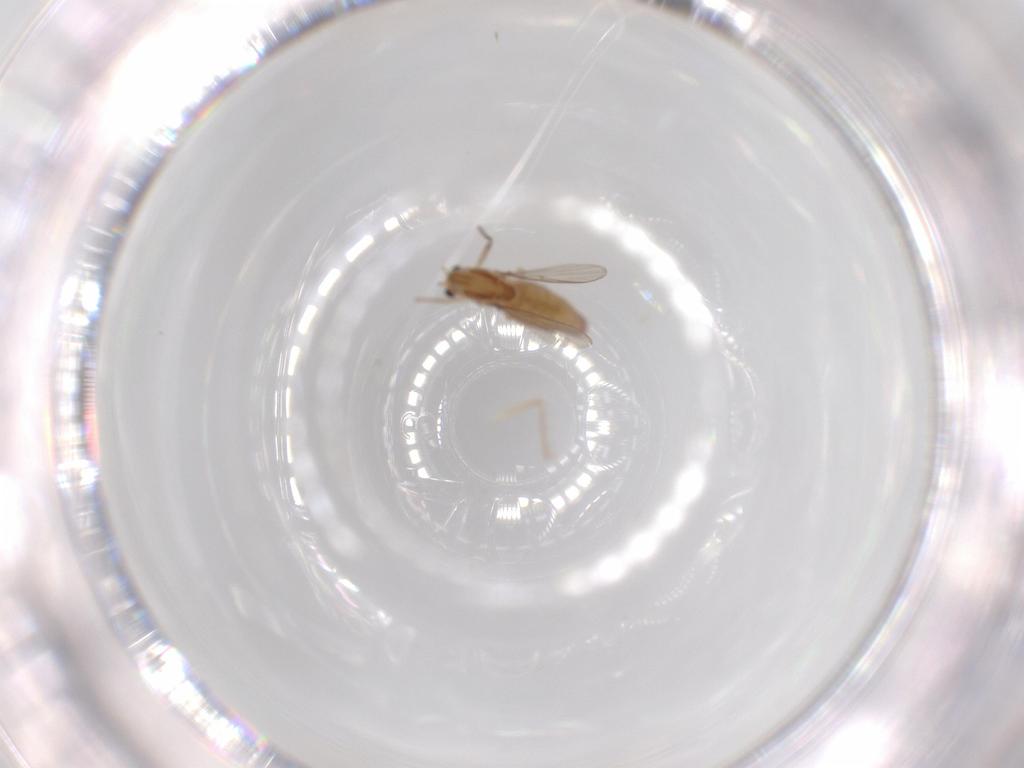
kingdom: Animalia
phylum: Arthropoda
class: Insecta
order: Diptera
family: Chironomidae
